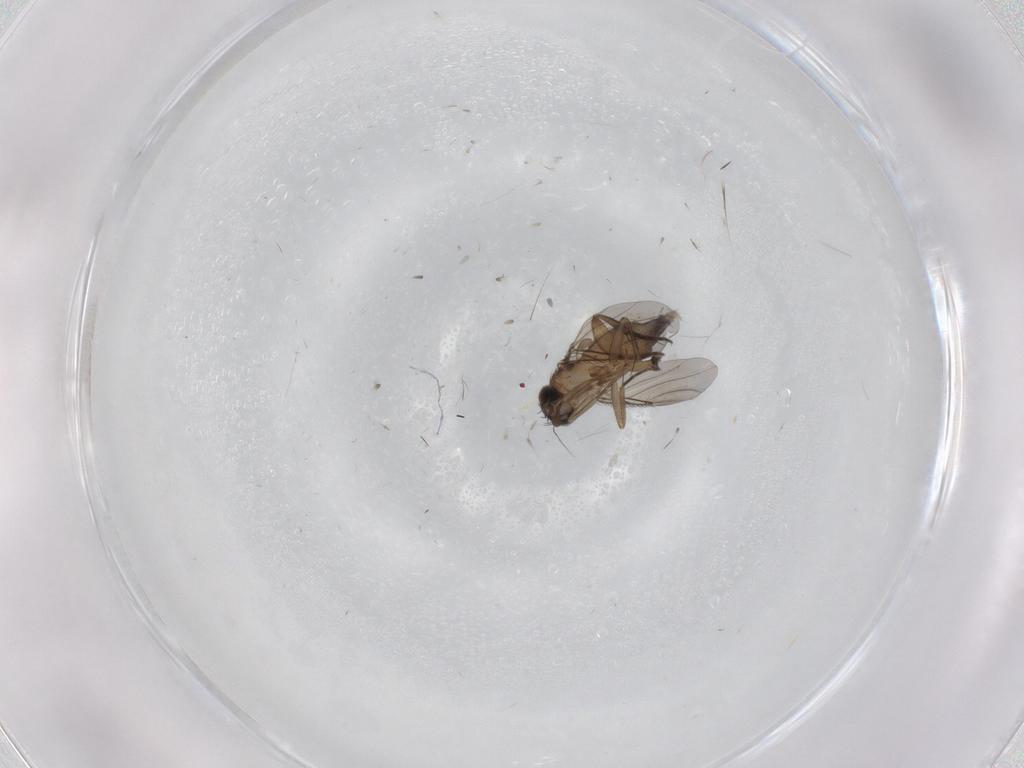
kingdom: Animalia
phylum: Arthropoda
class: Insecta
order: Diptera
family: Phoridae
